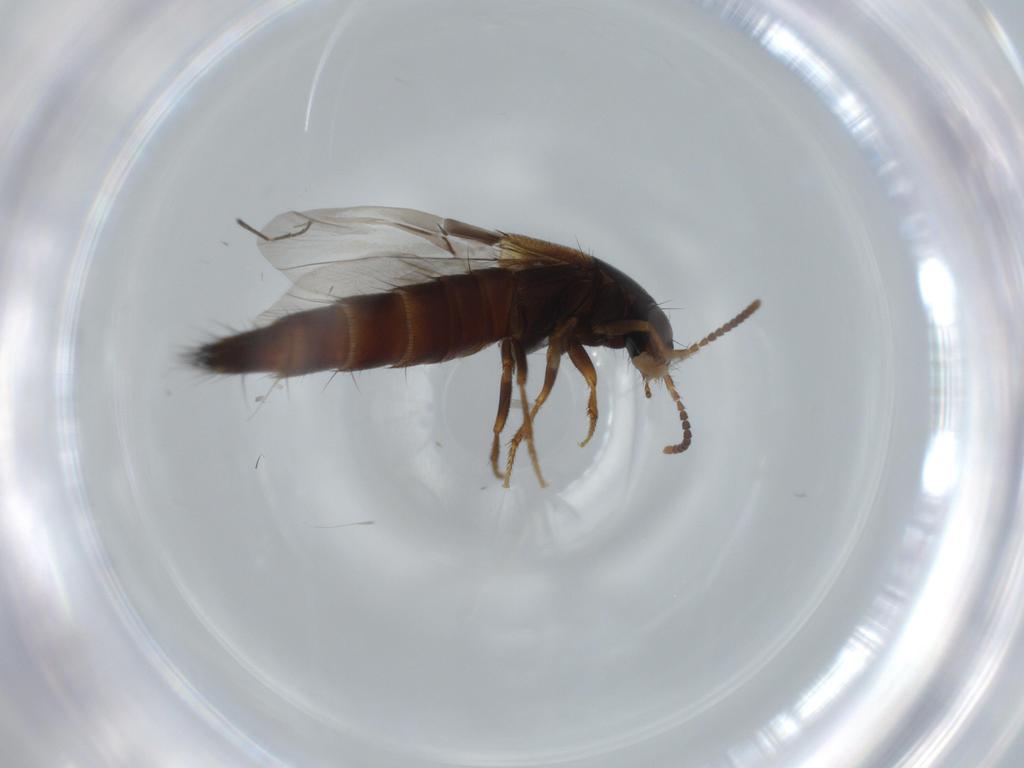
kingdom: Animalia
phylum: Arthropoda
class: Insecta
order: Coleoptera
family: Staphylinidae
